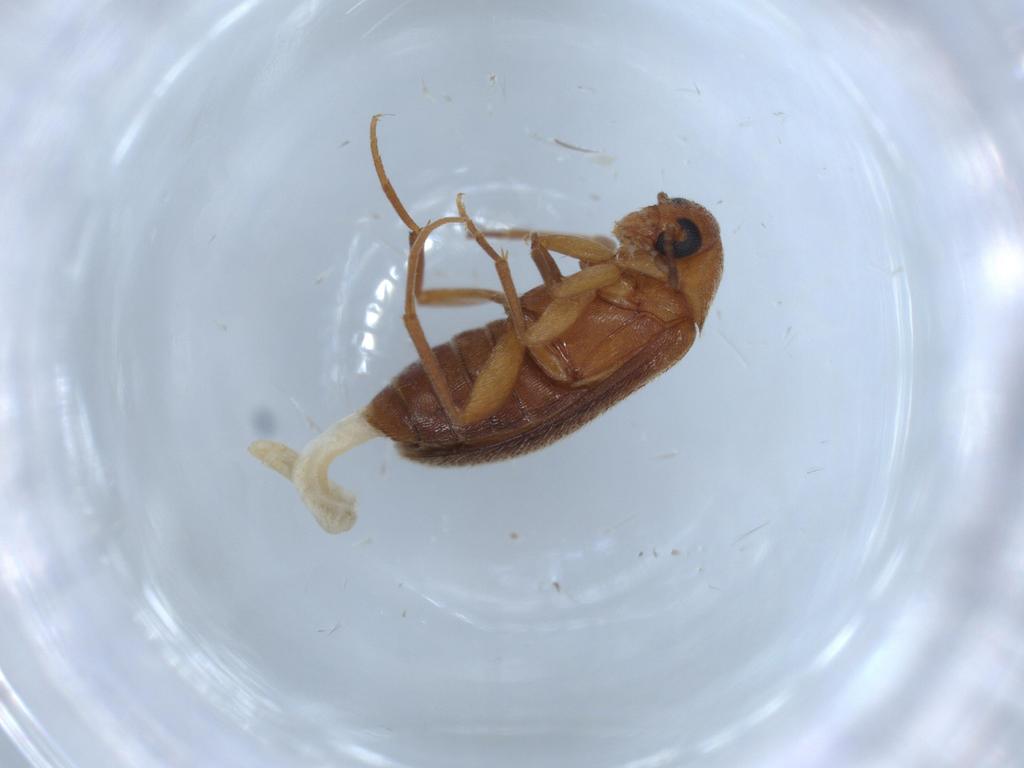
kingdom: Animalia
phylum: Arthropoda
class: Insecta
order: Coleoptera
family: Scraptiidae
